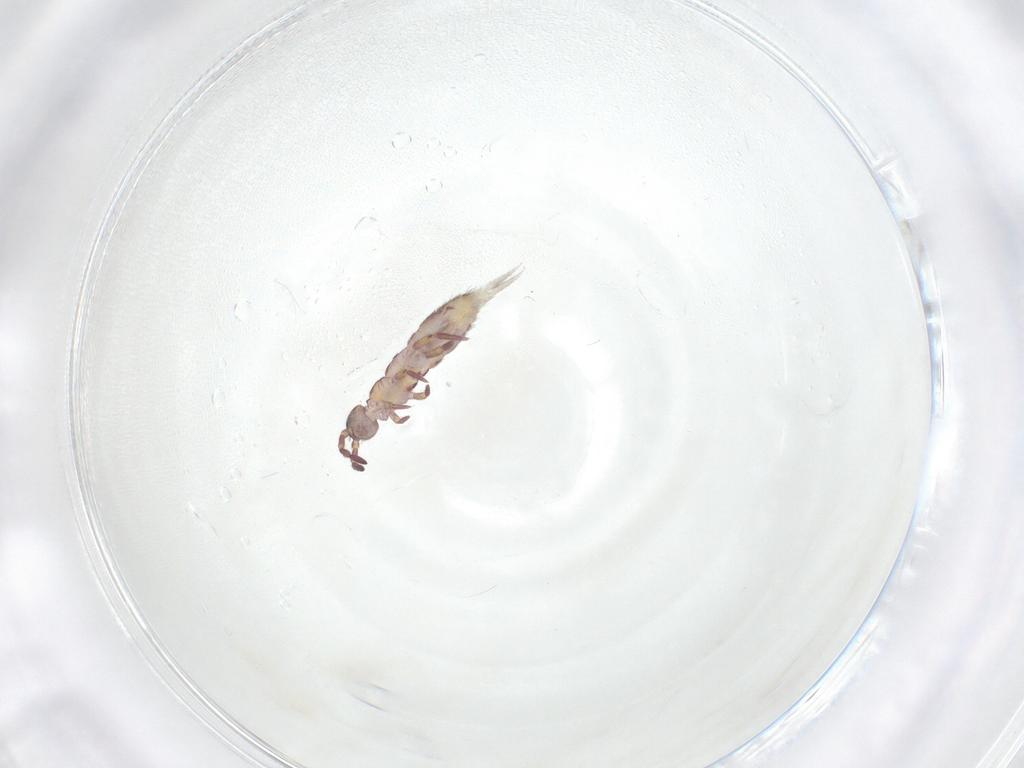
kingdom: Animalia
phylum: Arthropoda
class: Collembola
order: Entomobryomorpha
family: Isotomidae
